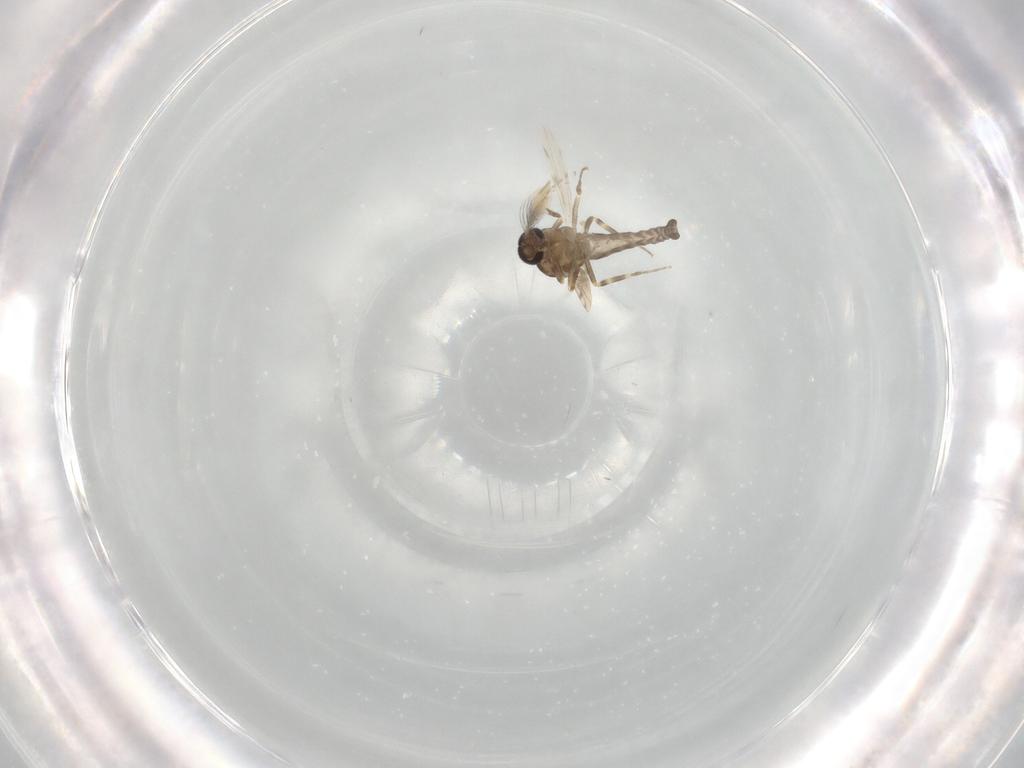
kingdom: Animalia
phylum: Arthropoda
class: Insecta
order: Diptera
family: Ceratopogonidae
